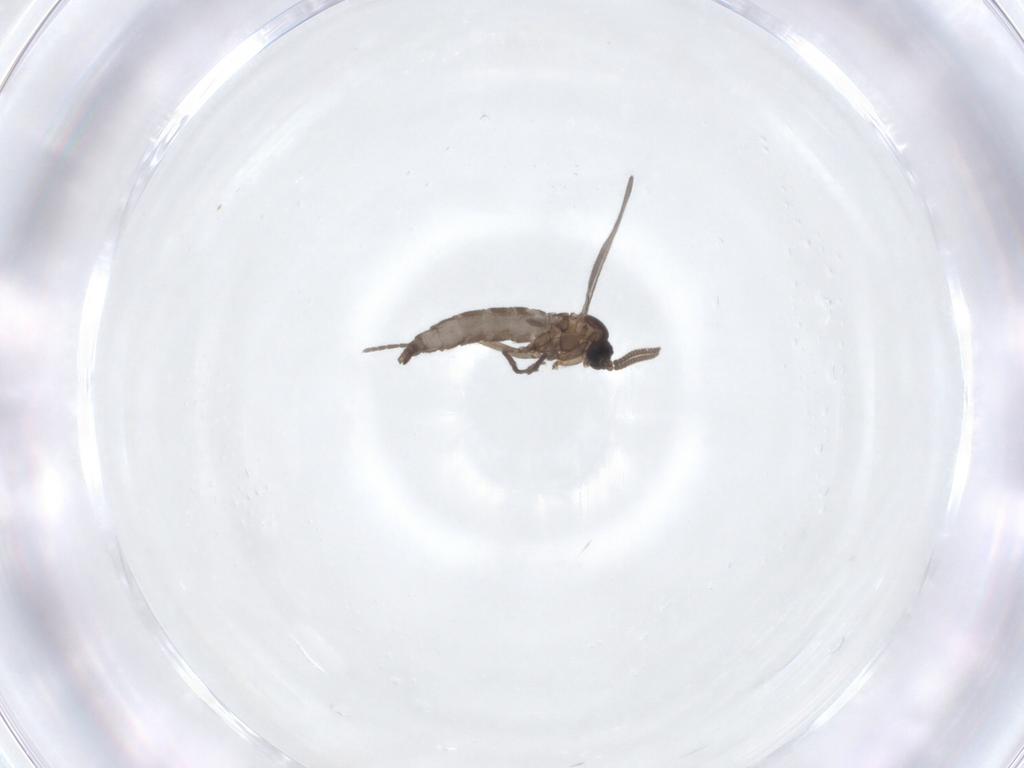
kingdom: Animalia
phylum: Arthropoda
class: Insecta
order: Diptera
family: Sciaridae
